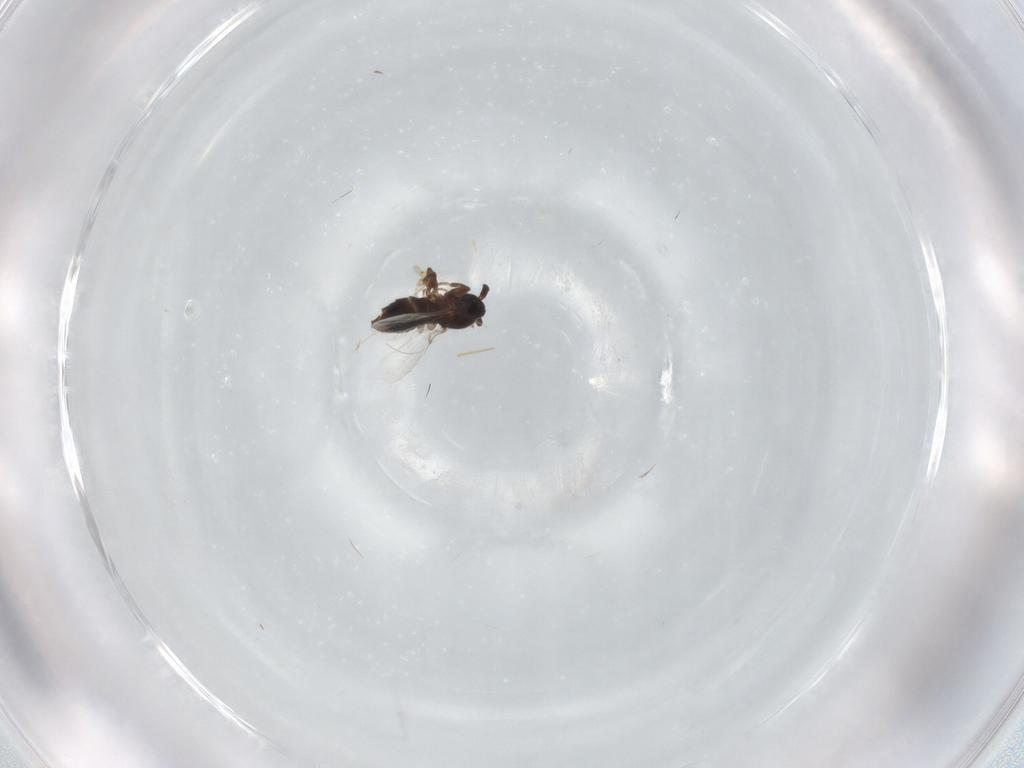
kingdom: Animalia
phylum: Arthropoda
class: Insecta
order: Diptera
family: Scatopsidae
